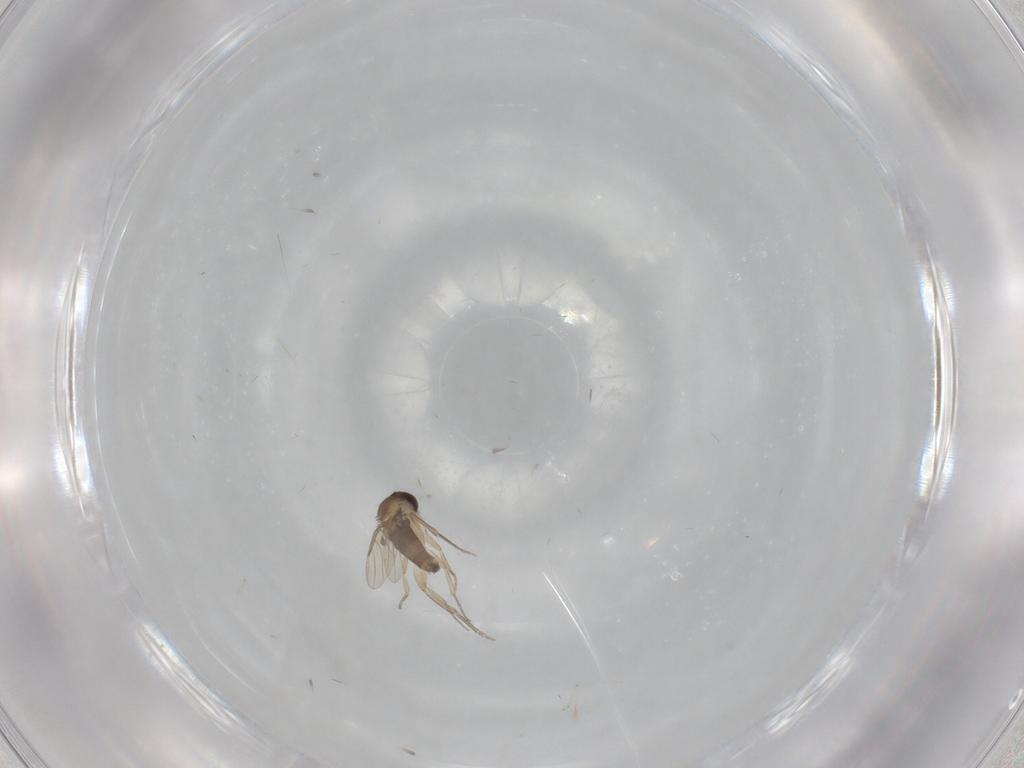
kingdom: Animalia
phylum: Arthropoda
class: Insecta
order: Diptera
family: Cecidomyiidae
